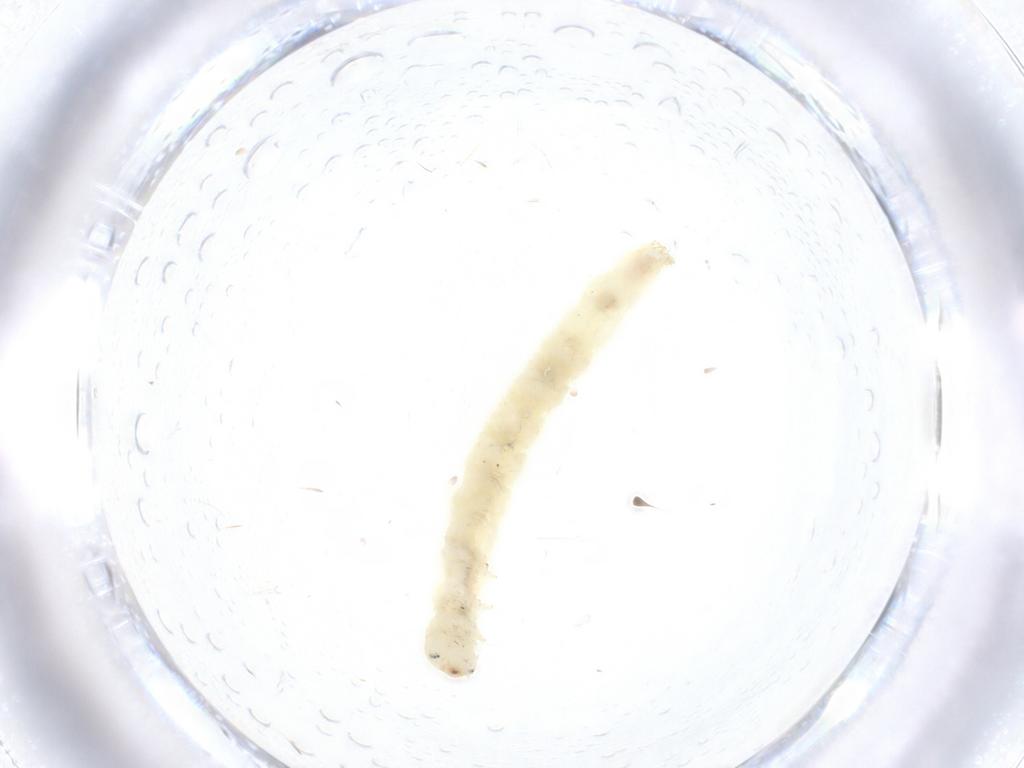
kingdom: Animalia
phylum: Arthropoda
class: Insecta
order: Lepidoptera
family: Depressariidae
